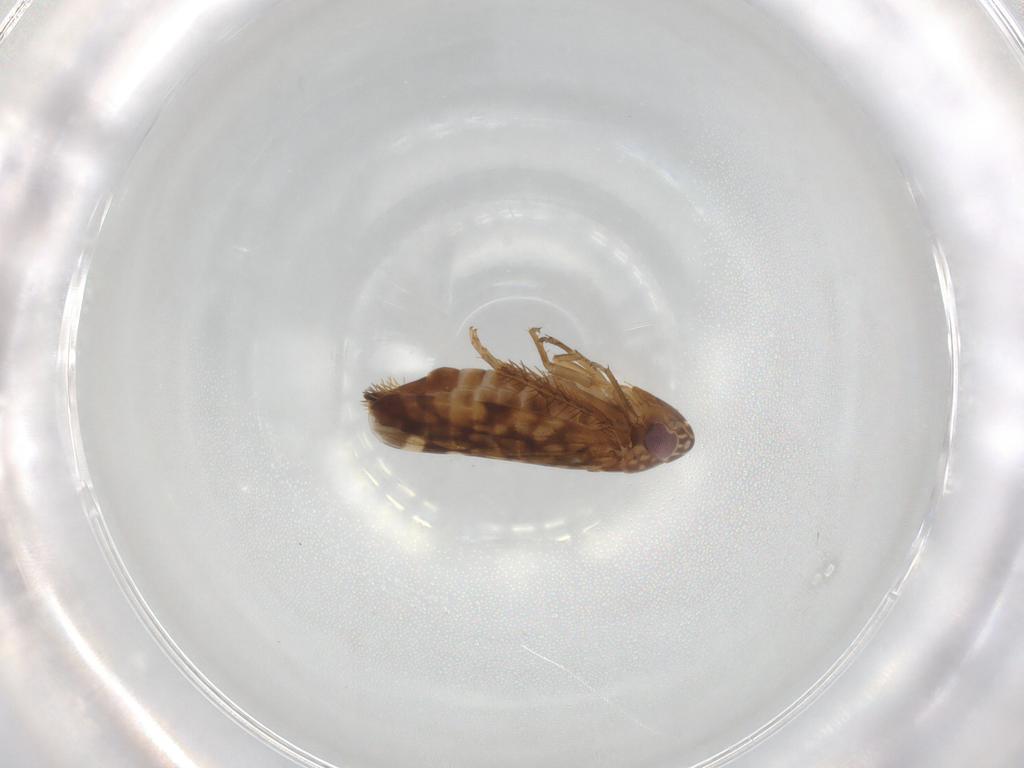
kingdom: Animalia
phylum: Arthropoda
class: Insecta
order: Hemiptera
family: Cicadellidae
